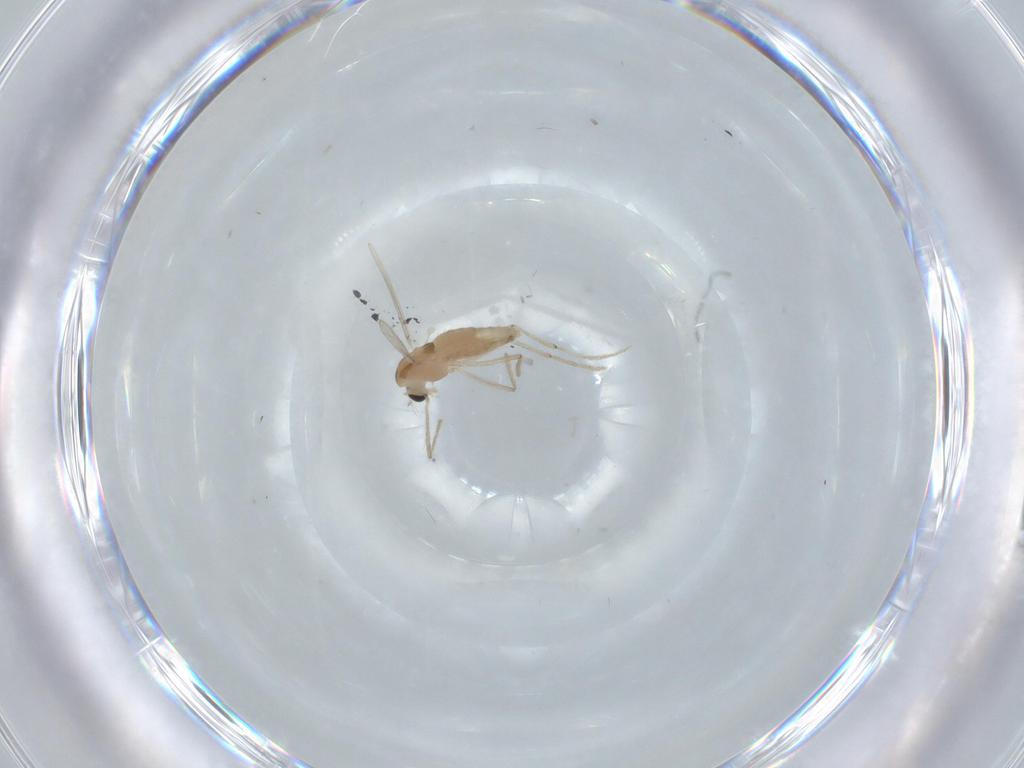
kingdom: Animalia
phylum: Arthropoda
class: Insecta
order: Diptera
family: Chironomidae
